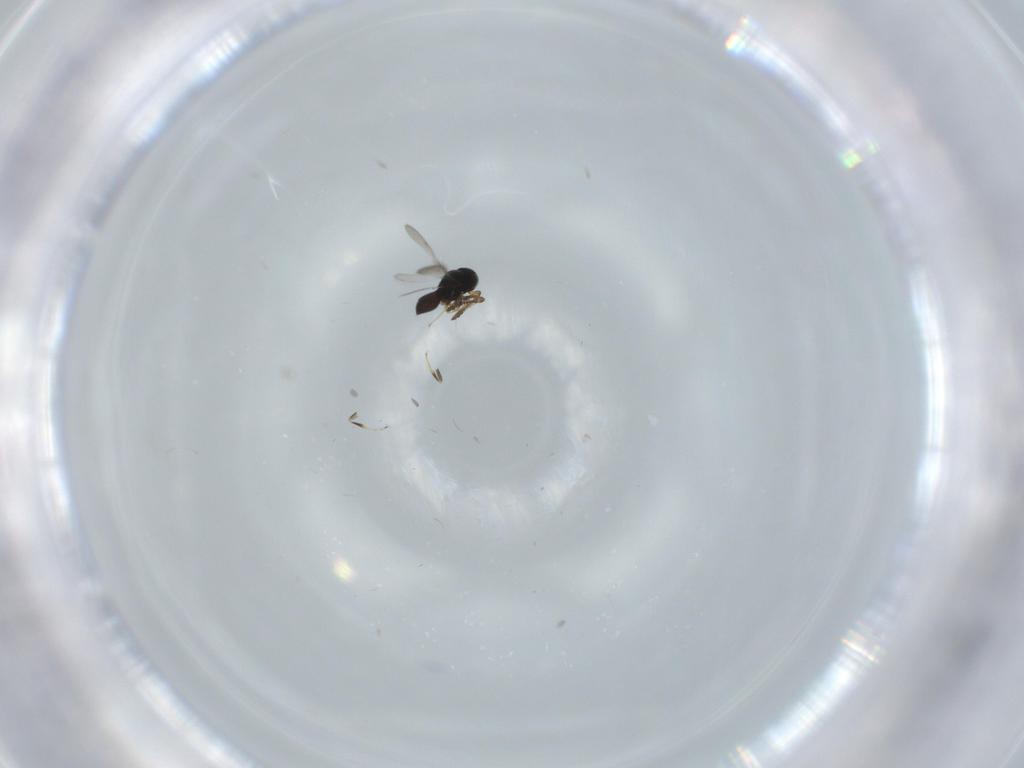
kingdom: Animalia
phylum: Arthropoda
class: Insecta
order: Hymenoptera
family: Scelionidae
